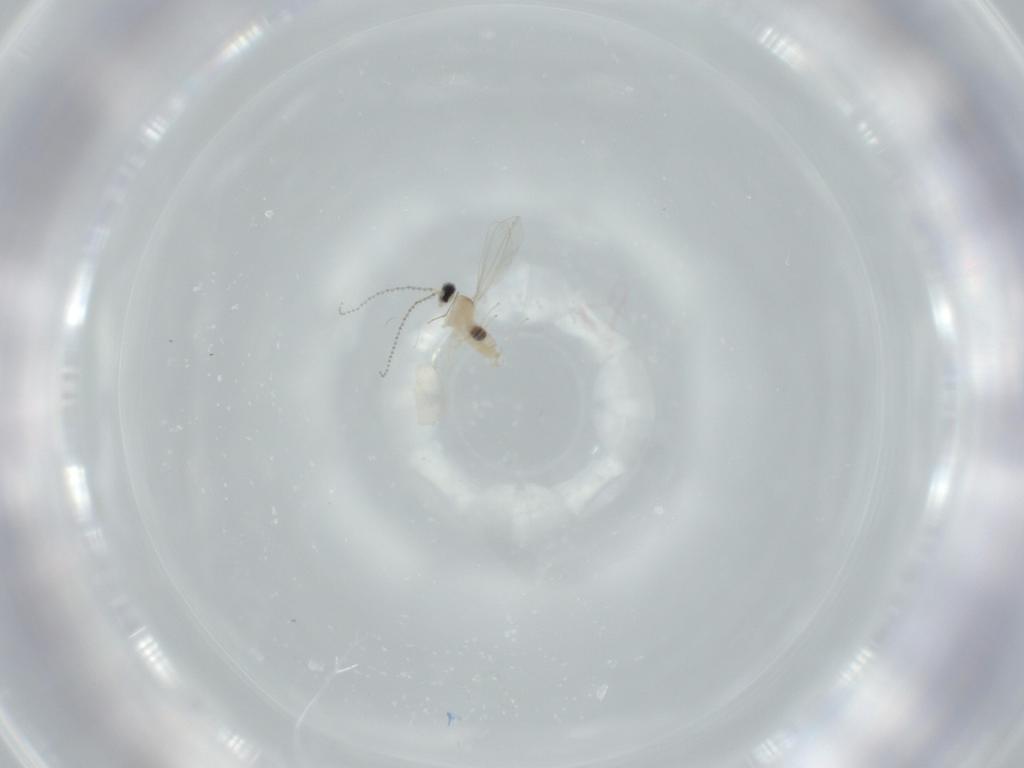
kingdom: Animalia
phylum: Arthropoda
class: Insecta
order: Diptera
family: Cecidomyiidae
